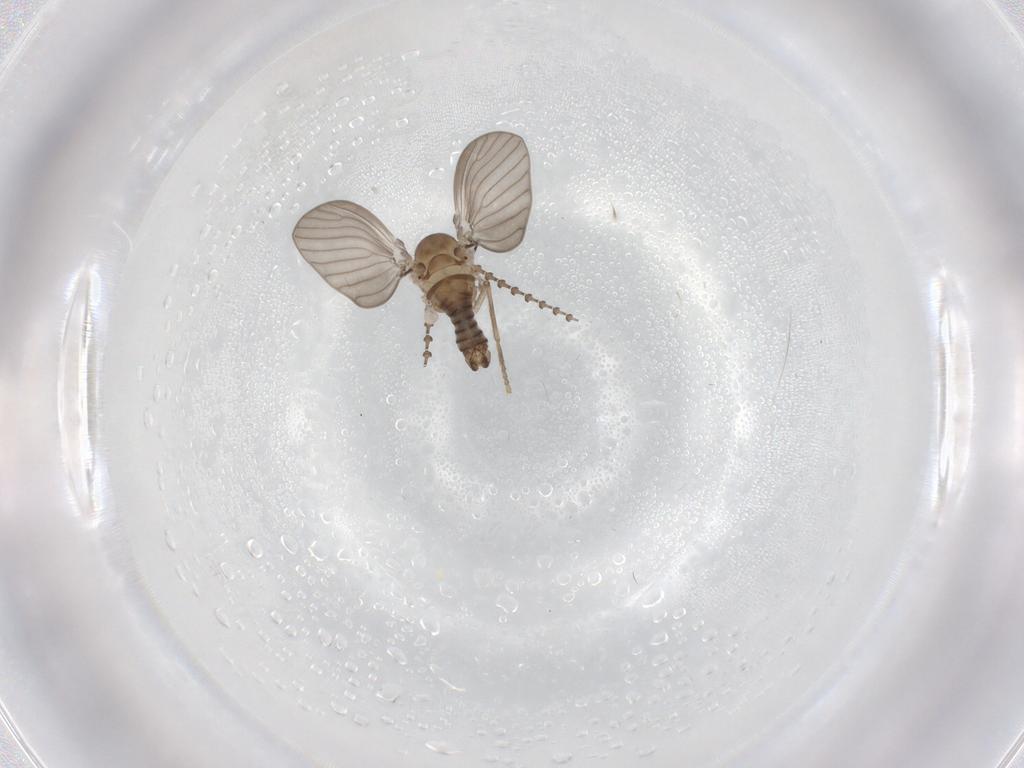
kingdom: Animalia
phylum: Arthropoda
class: Insecta
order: Diptera
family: Psychodidae
